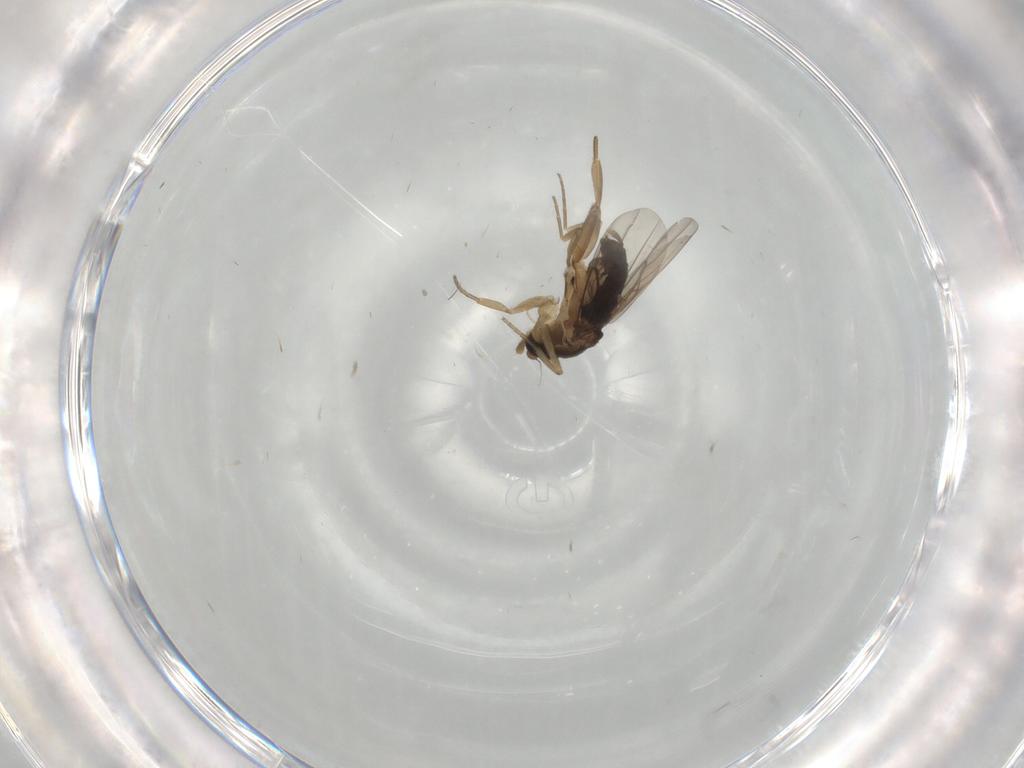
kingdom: Animalia
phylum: Arthropoda
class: Insecta
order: Diptera
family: Phoridae
